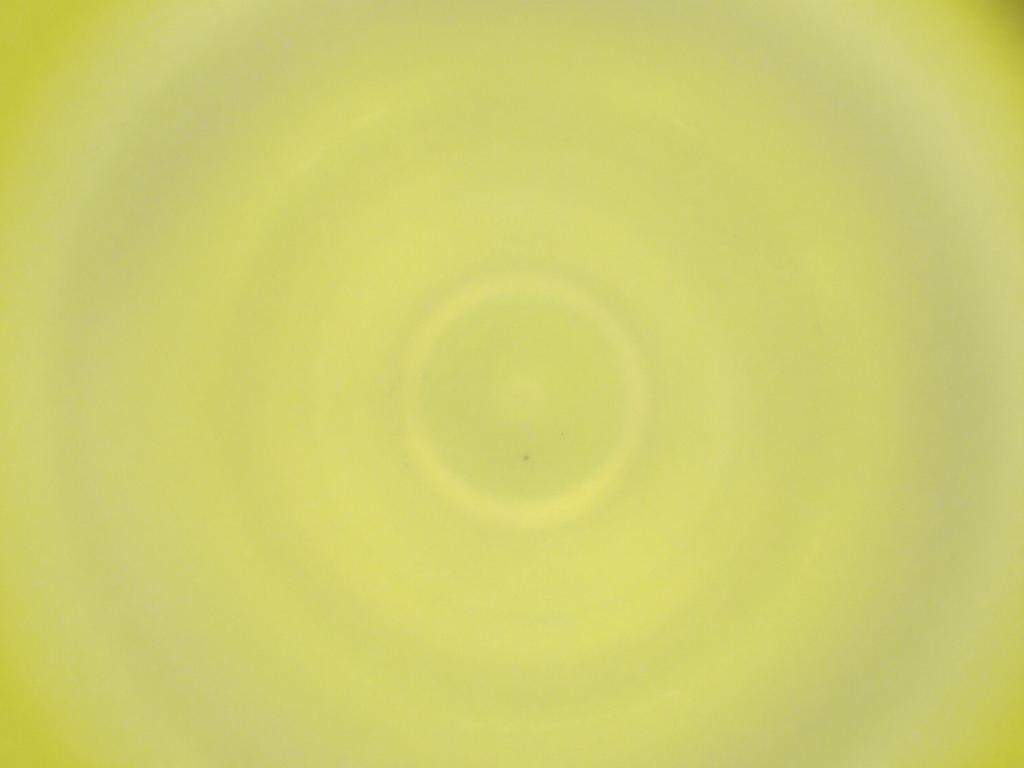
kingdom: Animalia
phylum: Arthropoda
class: Insecta
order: Diptera
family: Cecidomyiidae
